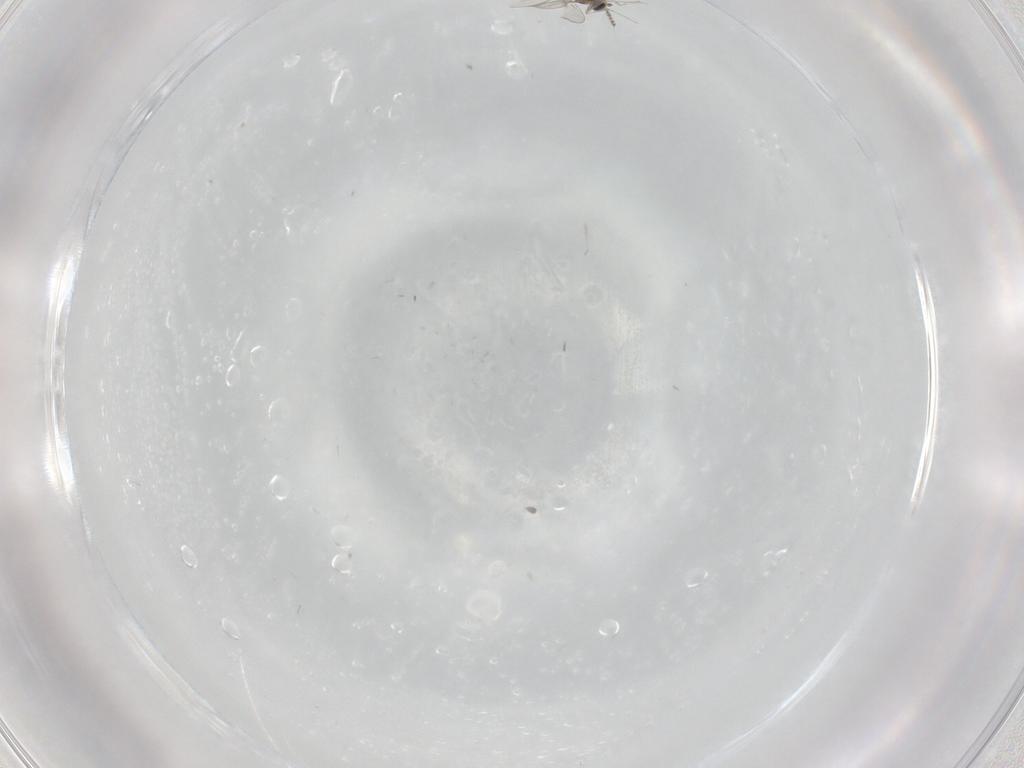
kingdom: Animalia
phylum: Arthropoda
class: Insecta
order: Diptera
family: Cecidomyiidae
